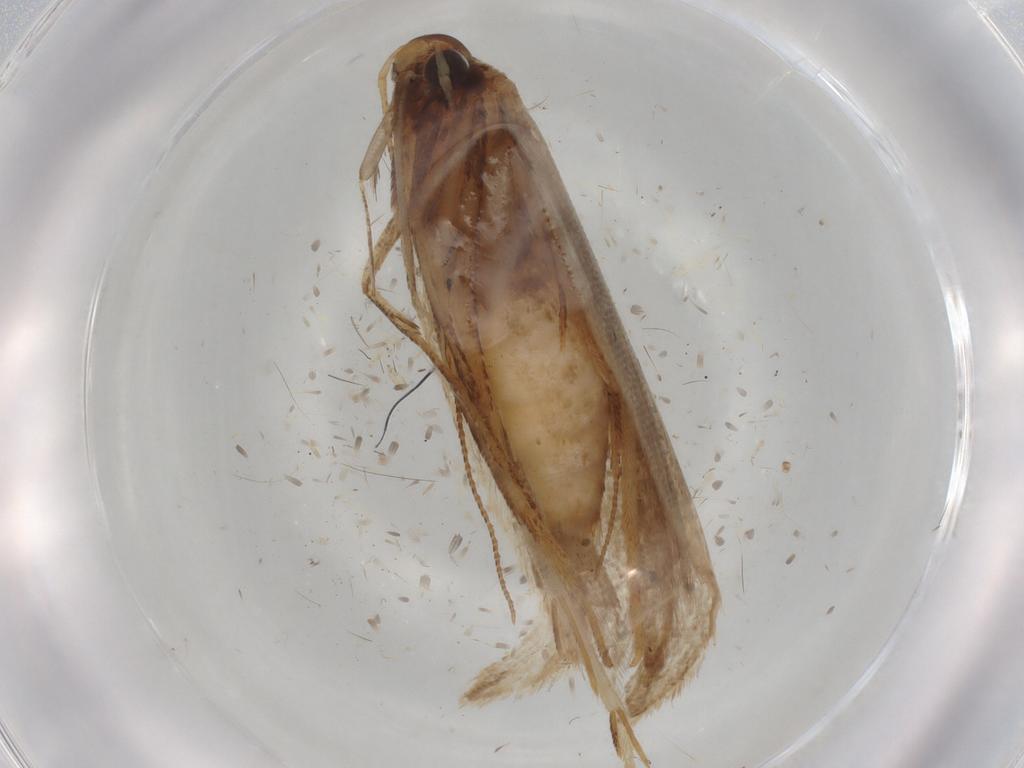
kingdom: Animalia
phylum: Arthropoda
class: Insecta
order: Lepidoptera
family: Gelechiidae
